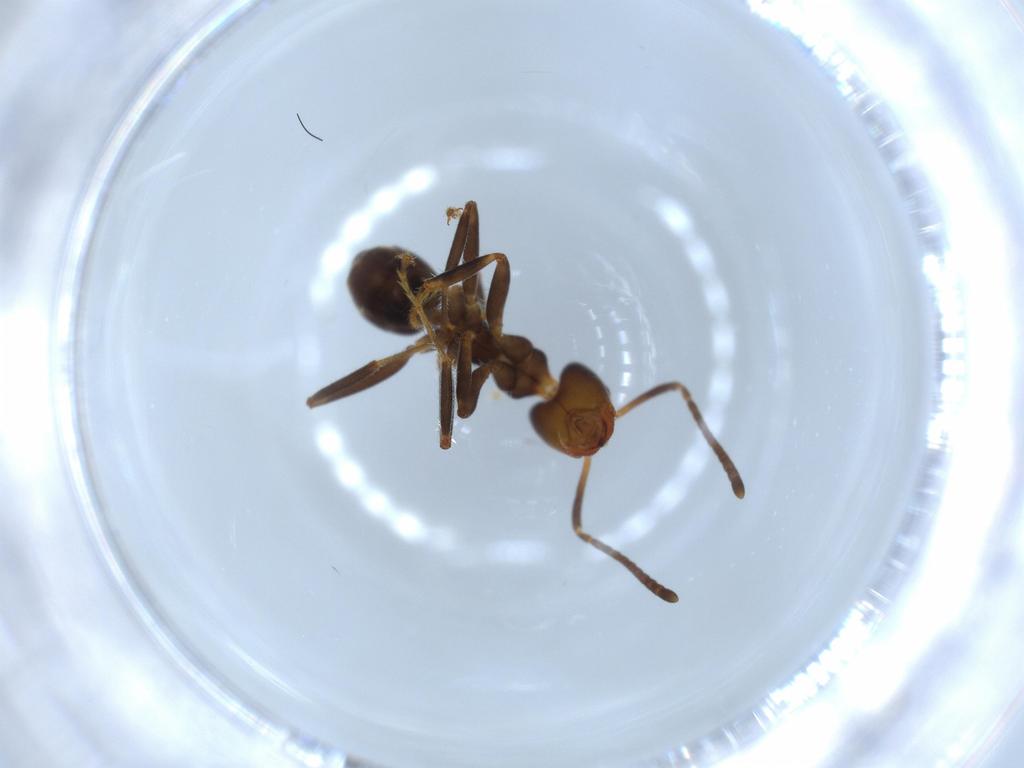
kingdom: Animalia
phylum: Arthropoda
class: Insecta
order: Hymenoptera
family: Formicidae
